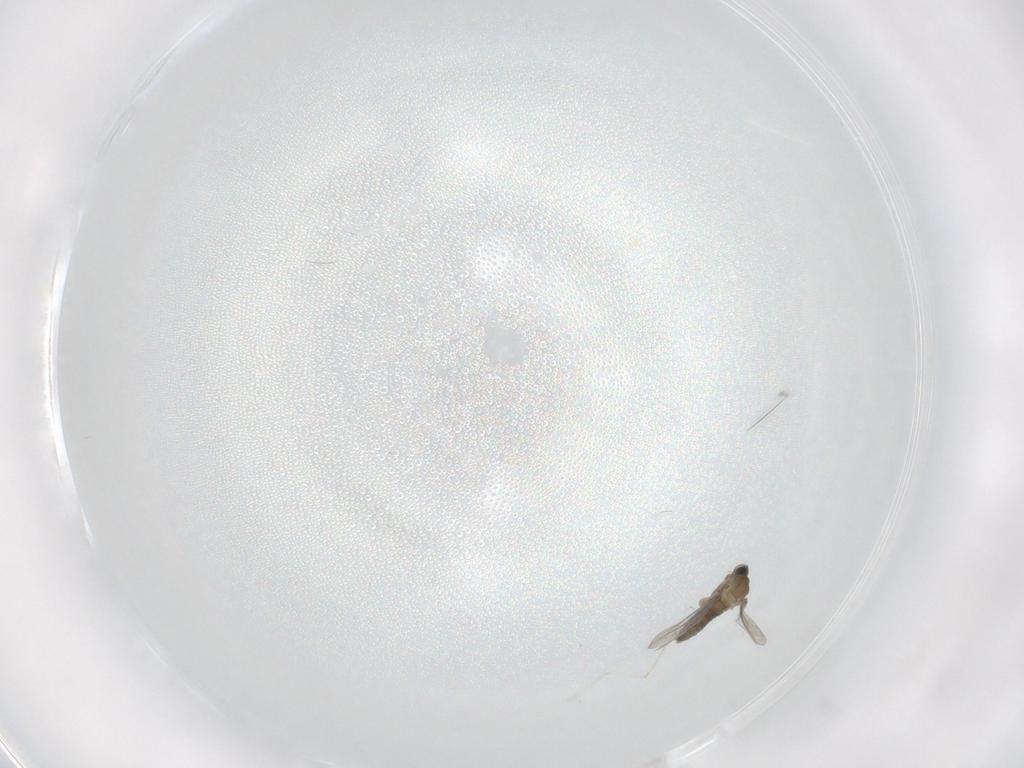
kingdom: Animalia
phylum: Arthropoda
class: Insecta
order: Diptera
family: Cecidomyiidae
